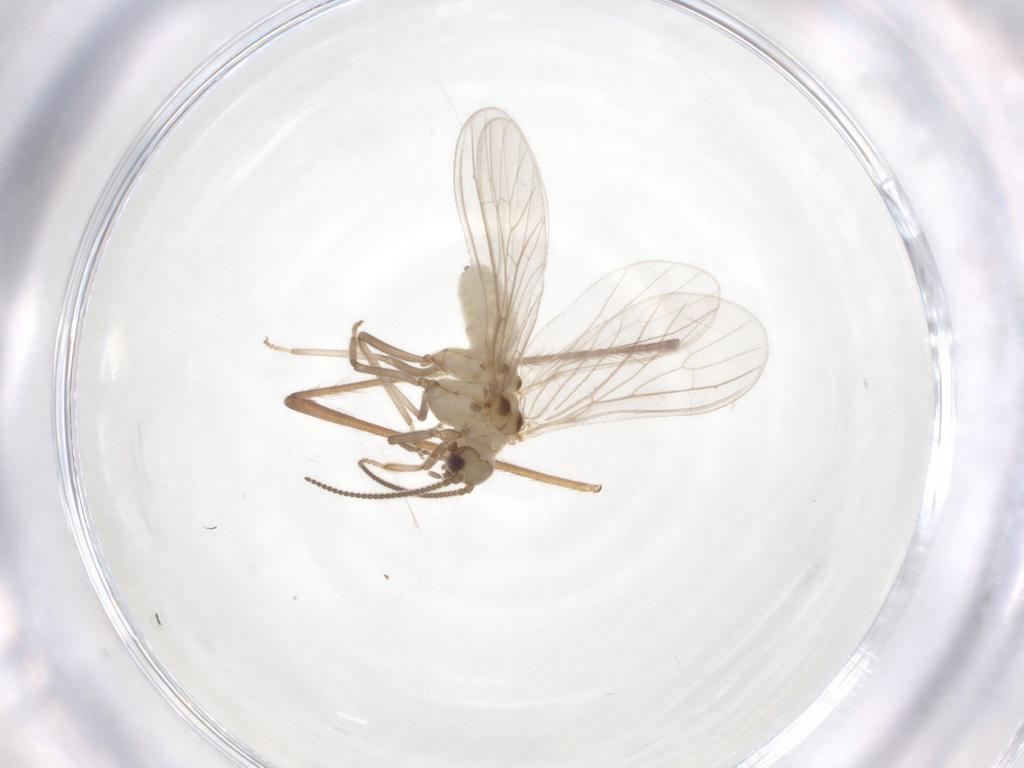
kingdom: Animalia
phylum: Arthropoda
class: Insecta
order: Neuroptera
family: Coniopterygidae
